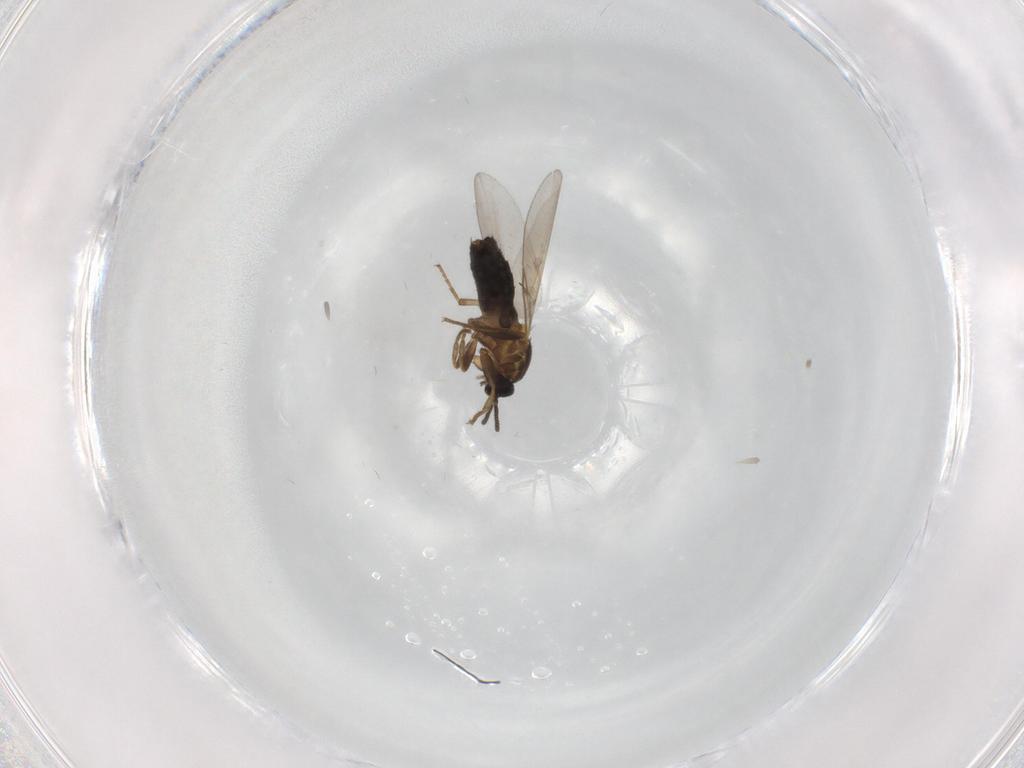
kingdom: Animalia
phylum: Arthropoda
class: Insecta
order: Diptera
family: Scatopsidae
